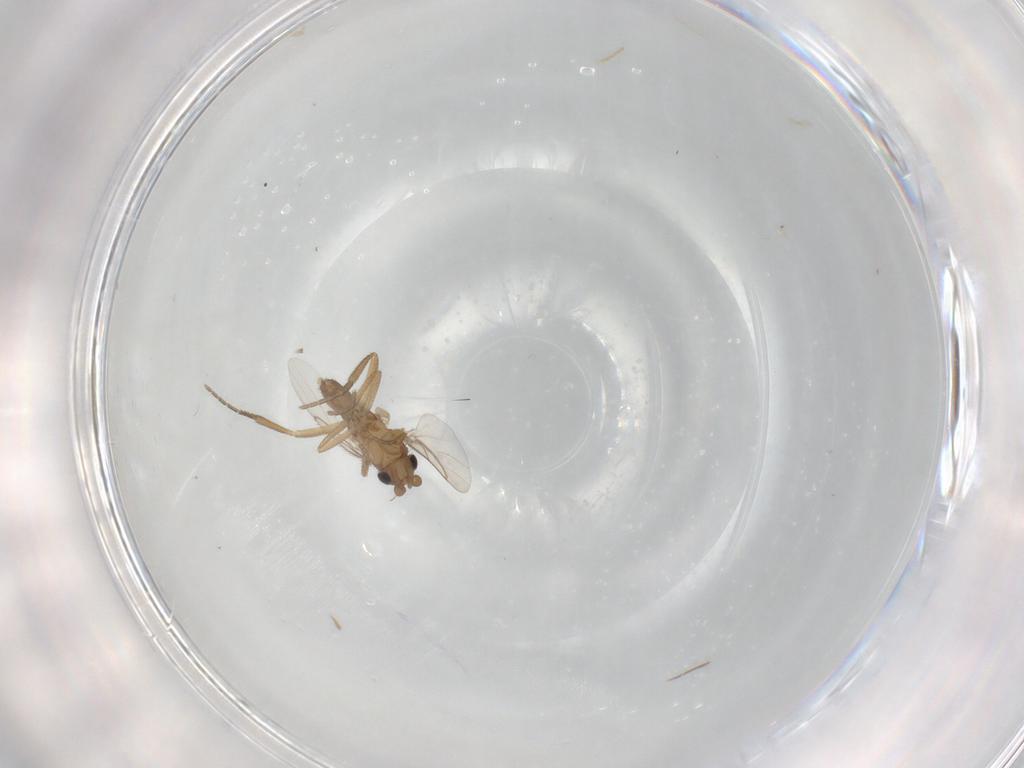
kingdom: Animalia
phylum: Arthropoda
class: Insecta
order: Diptera
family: Phoridae
